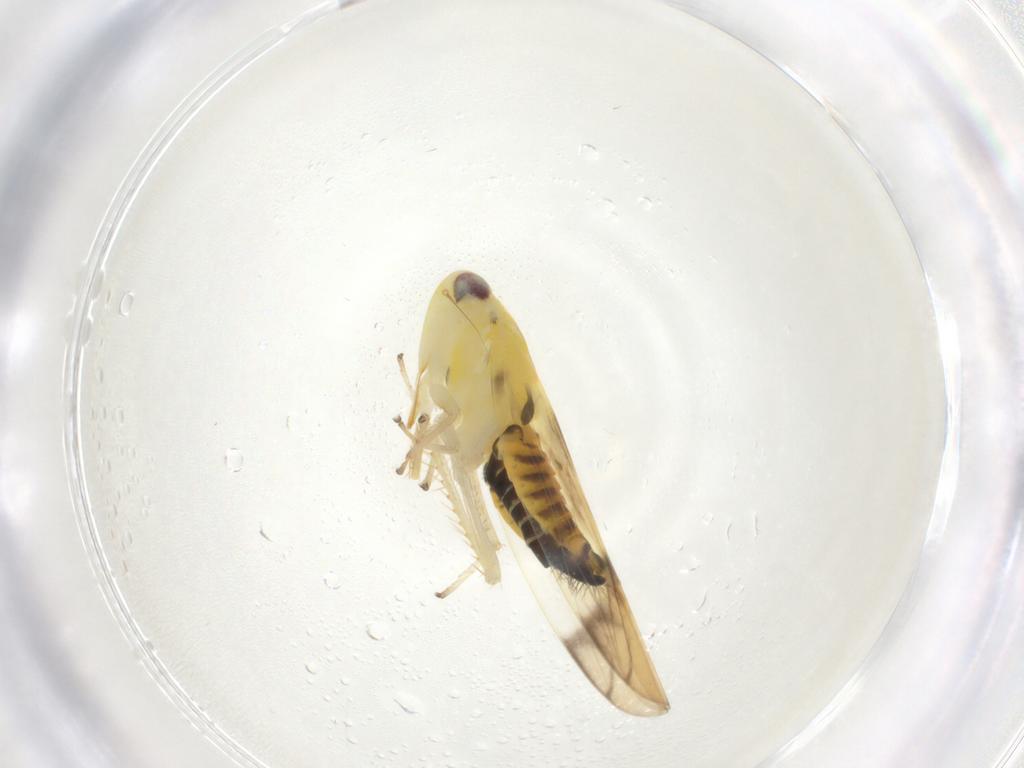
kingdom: Animalia
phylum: Arthropoda
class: Insecta
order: Hemiptera
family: Cicadellidae
